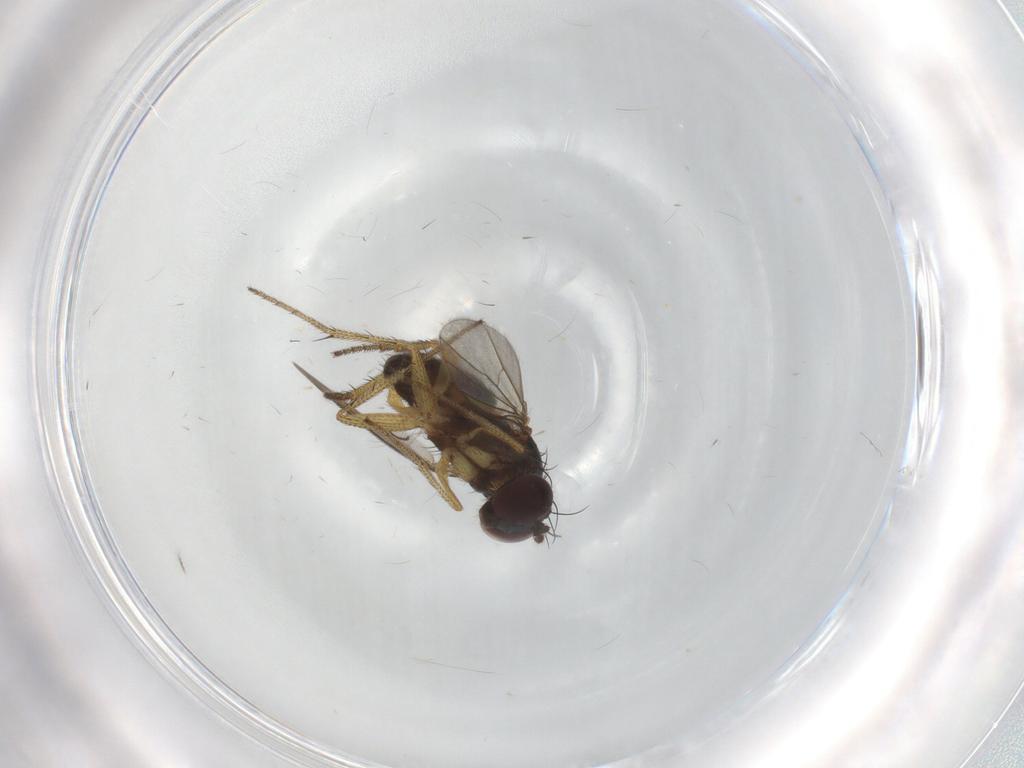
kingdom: Animalia
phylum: Arthropoda
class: Insecta
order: Diptera
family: Chironomidae
